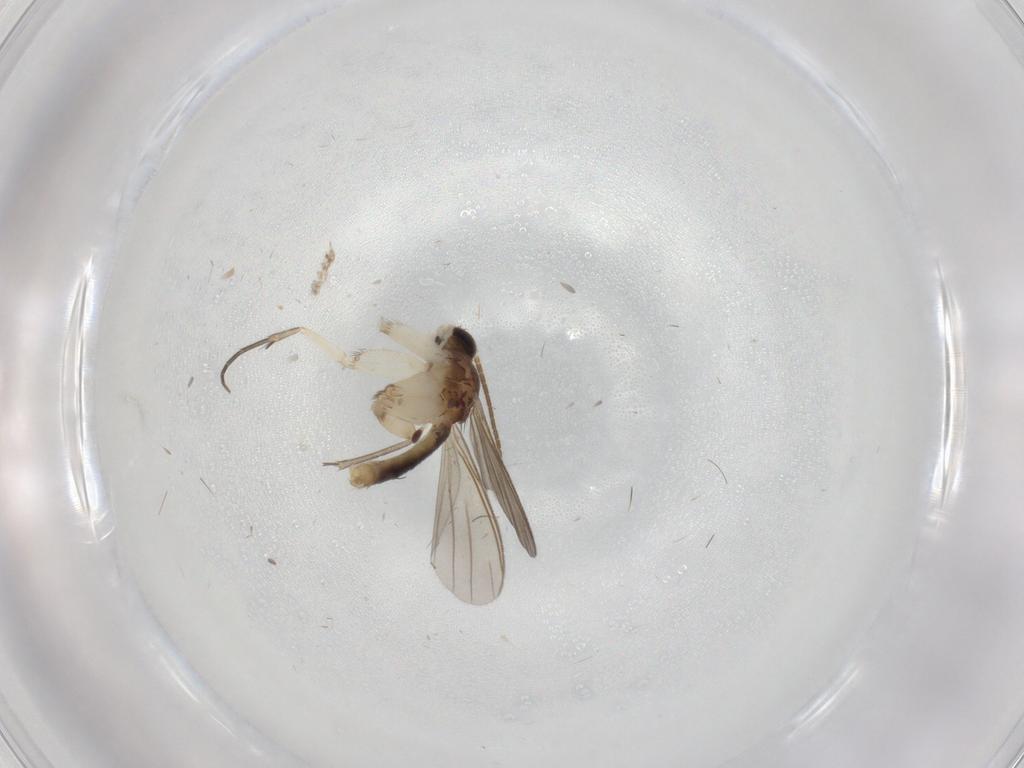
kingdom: Animalia
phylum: Arthropoda
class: Insecta
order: Diptera
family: Mycetophilidae
